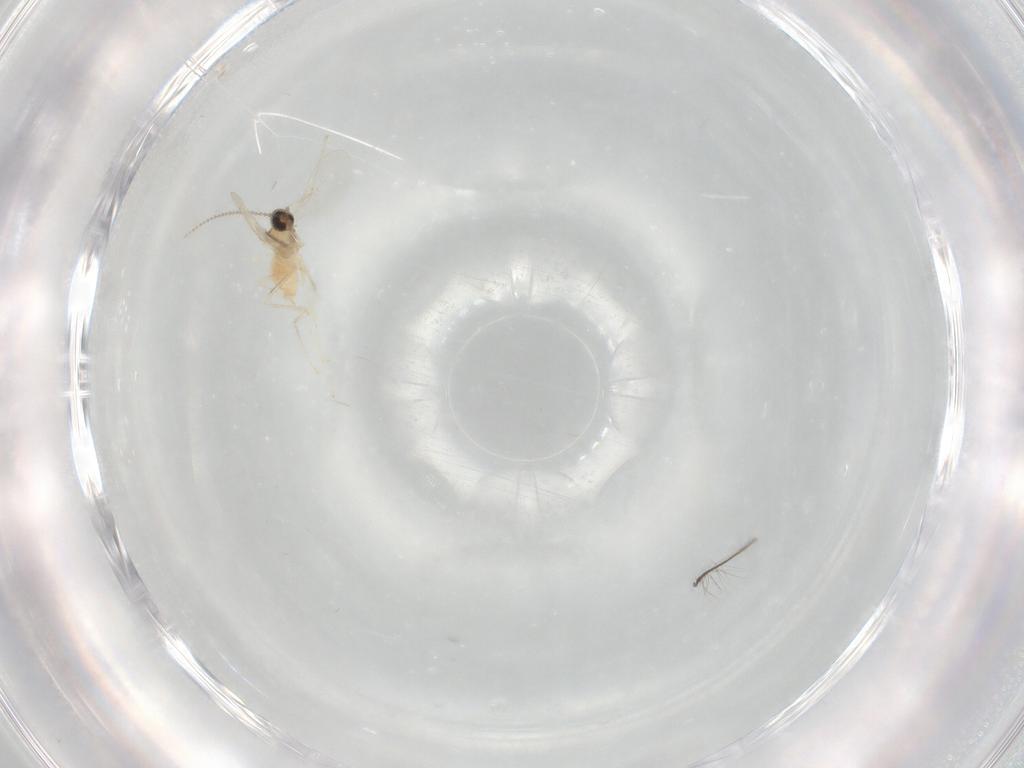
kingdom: Animalia
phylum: Arthropoda
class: Insecta
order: Diptera
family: Cecidomyiidae
